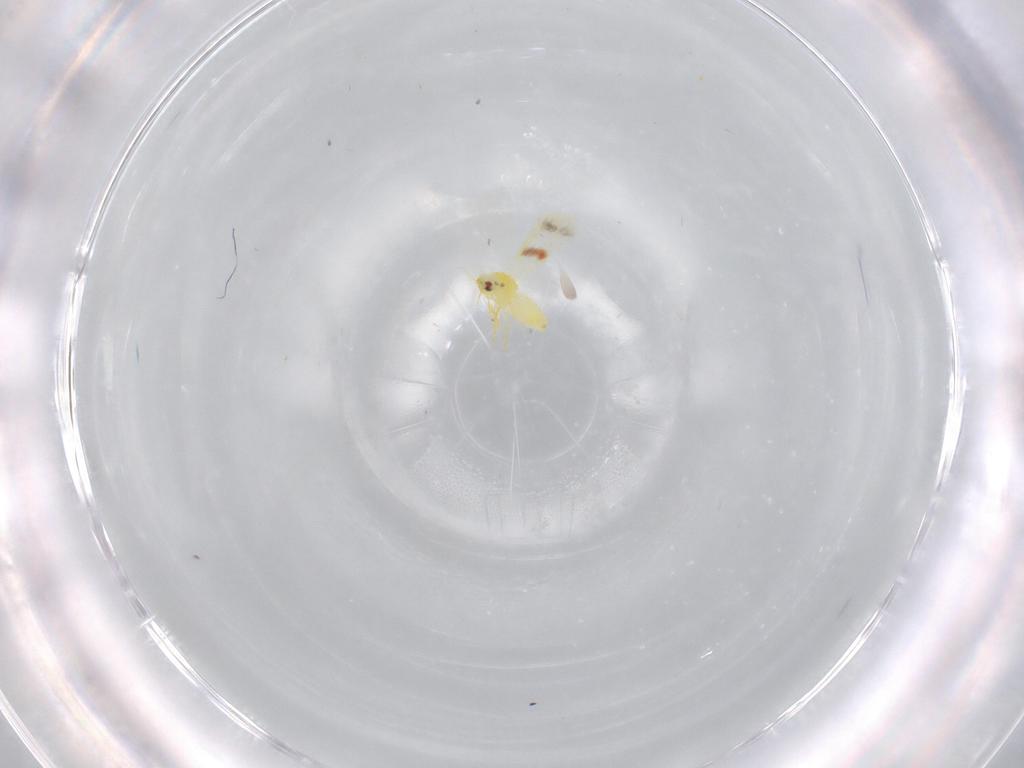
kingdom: Animalia
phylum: Arthropoda
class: Insecta
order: Hemiptera
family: Aleyrodidae
